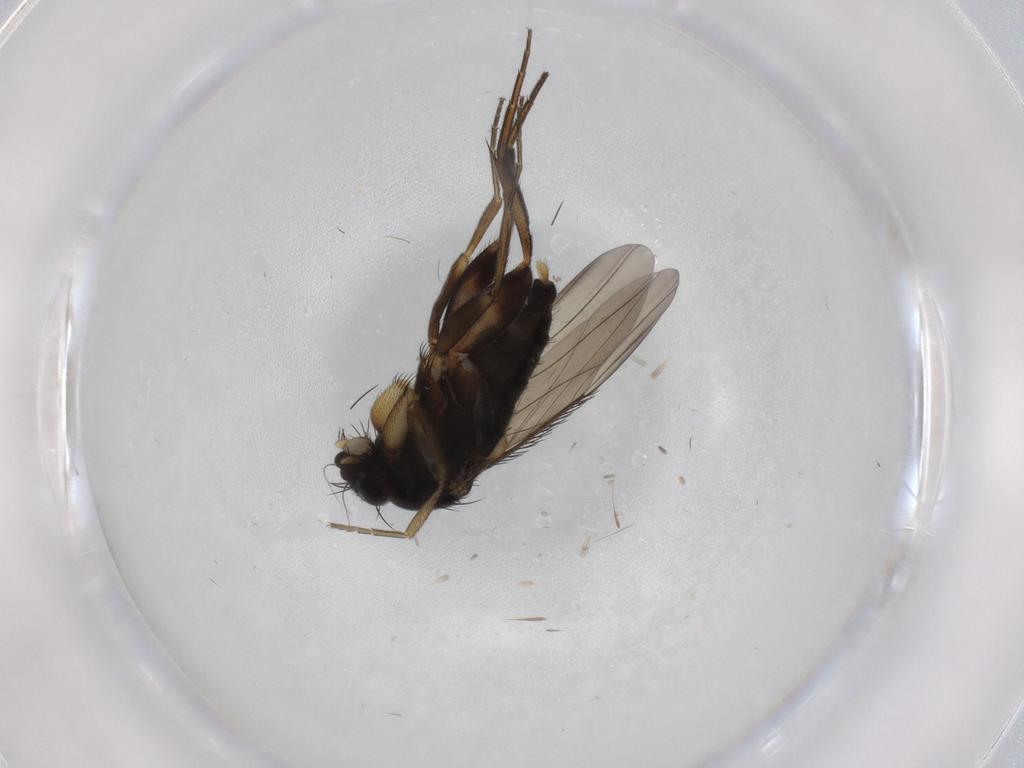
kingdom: Animalia
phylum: Arthropoda
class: Insecta
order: Diptera
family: Phoridae
